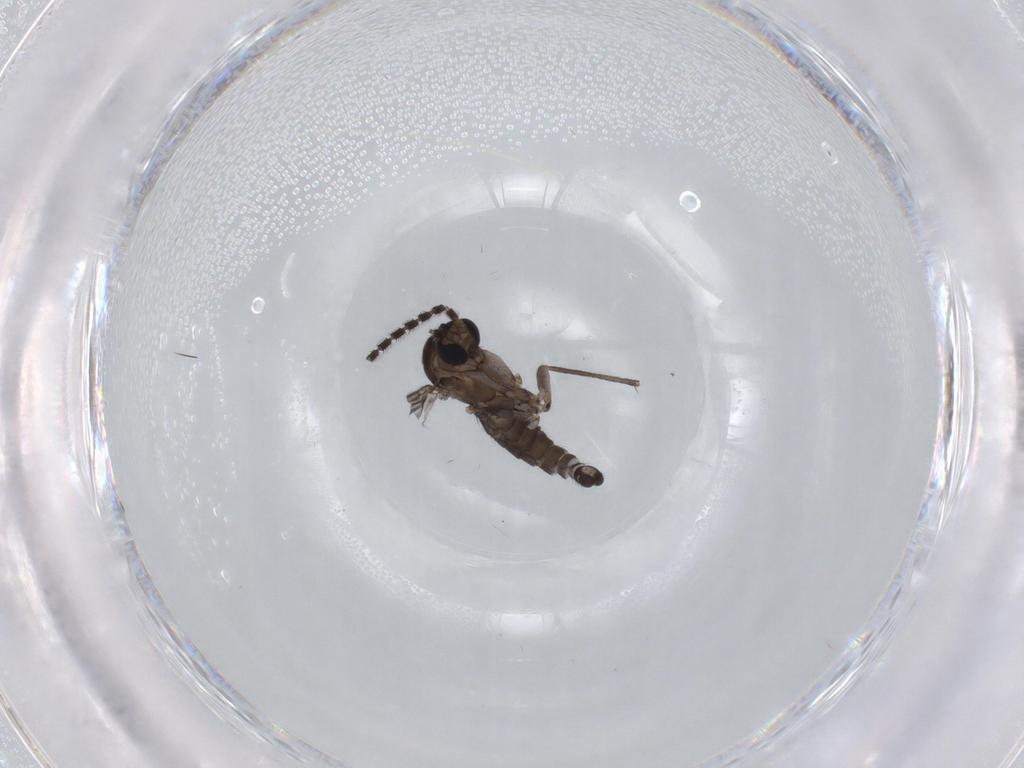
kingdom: Animalia
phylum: Arthropoda
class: Insecta
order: Diptera
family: Sciaridae
